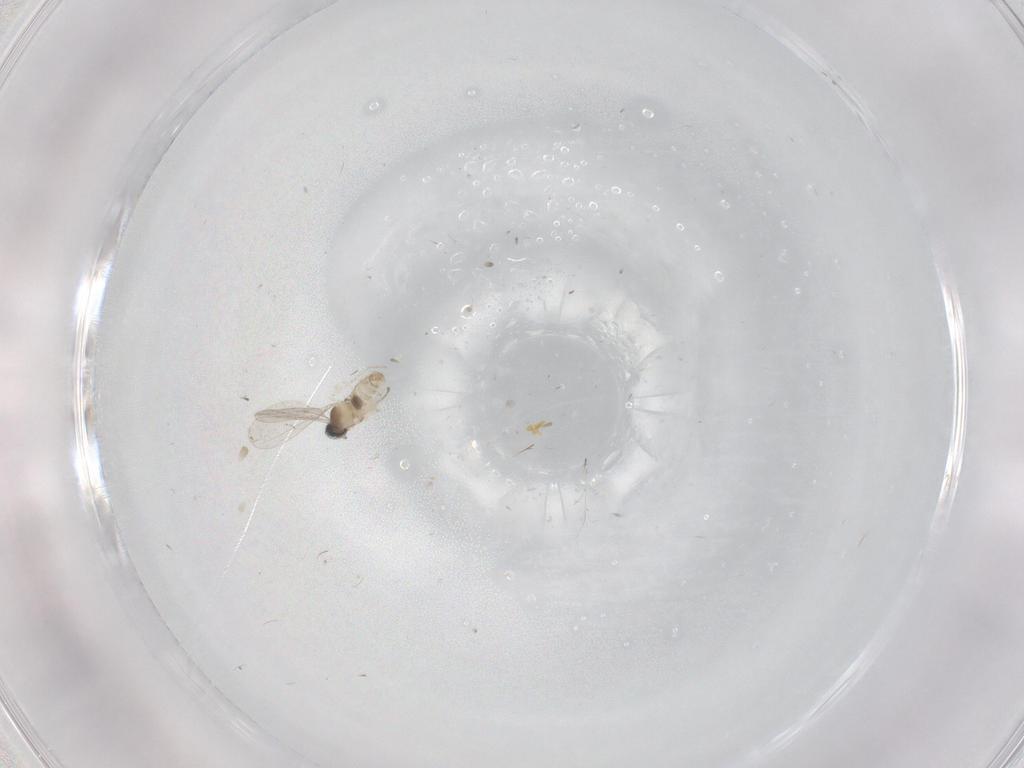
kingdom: Animalia
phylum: Arthropoda
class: Insecta
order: Diptera
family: Cecidomyiidae
